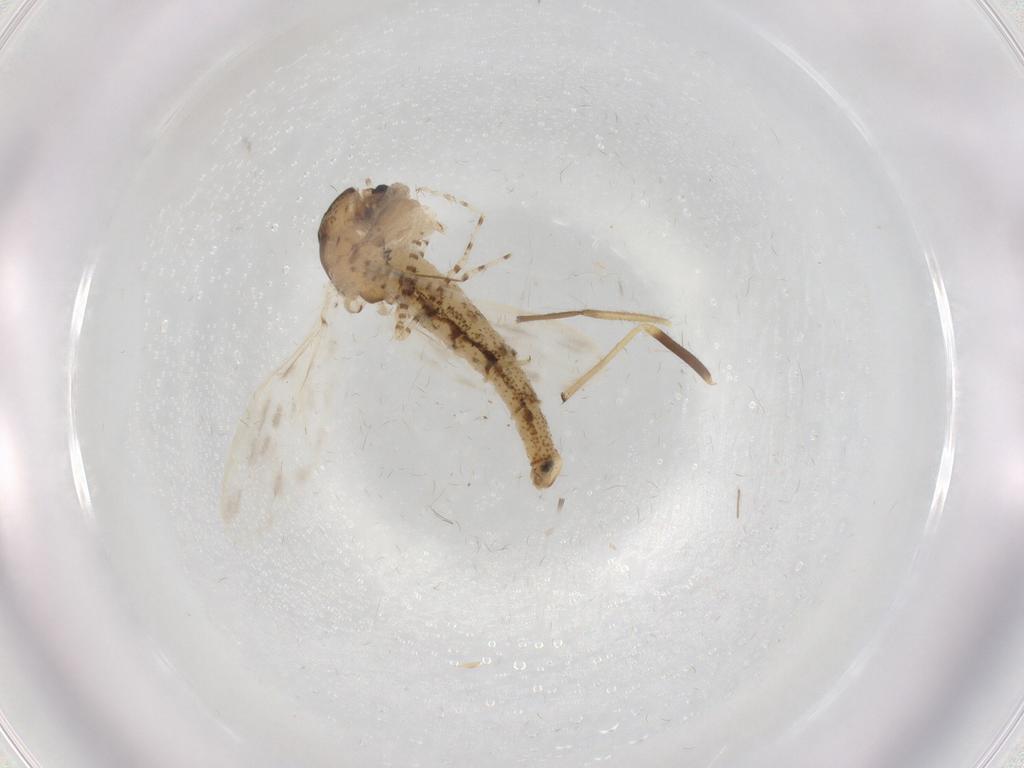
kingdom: Animalia
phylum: Arthropoda
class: Insecta
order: Diptera
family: Chaoboridae
